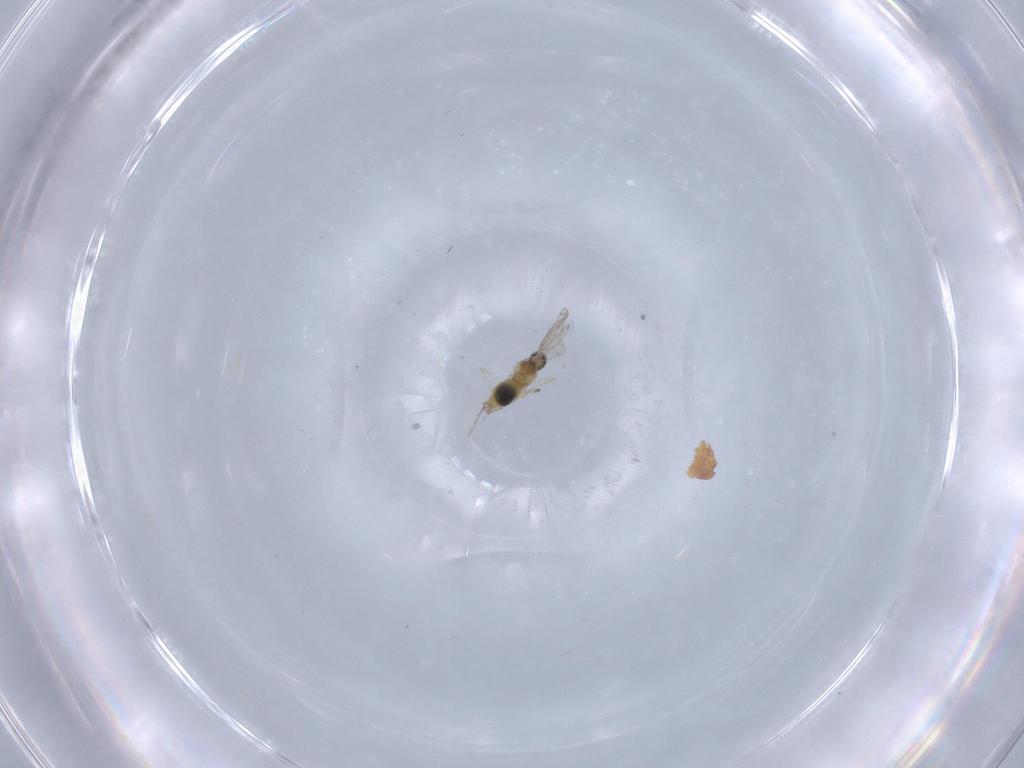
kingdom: Animalia
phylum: Arthropoda
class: Insecta
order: Diptera
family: Cecidomyiidae
